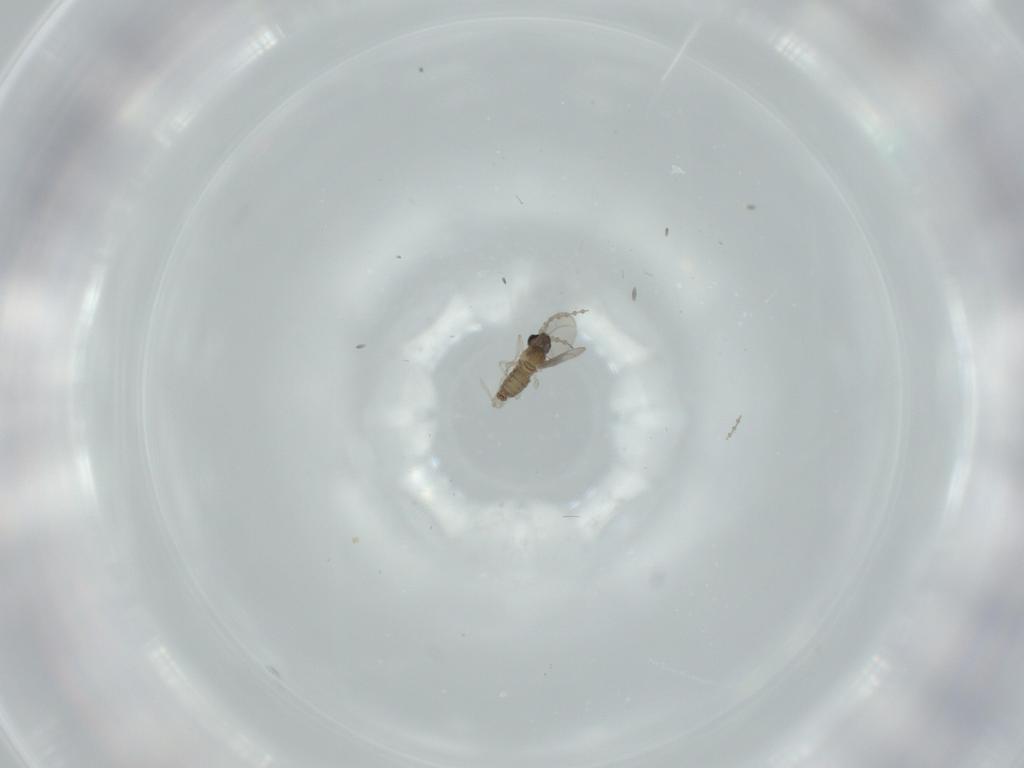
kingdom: Animalia
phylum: Arthropoda
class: Insecta
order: Diptera
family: Cecidomyiidae
